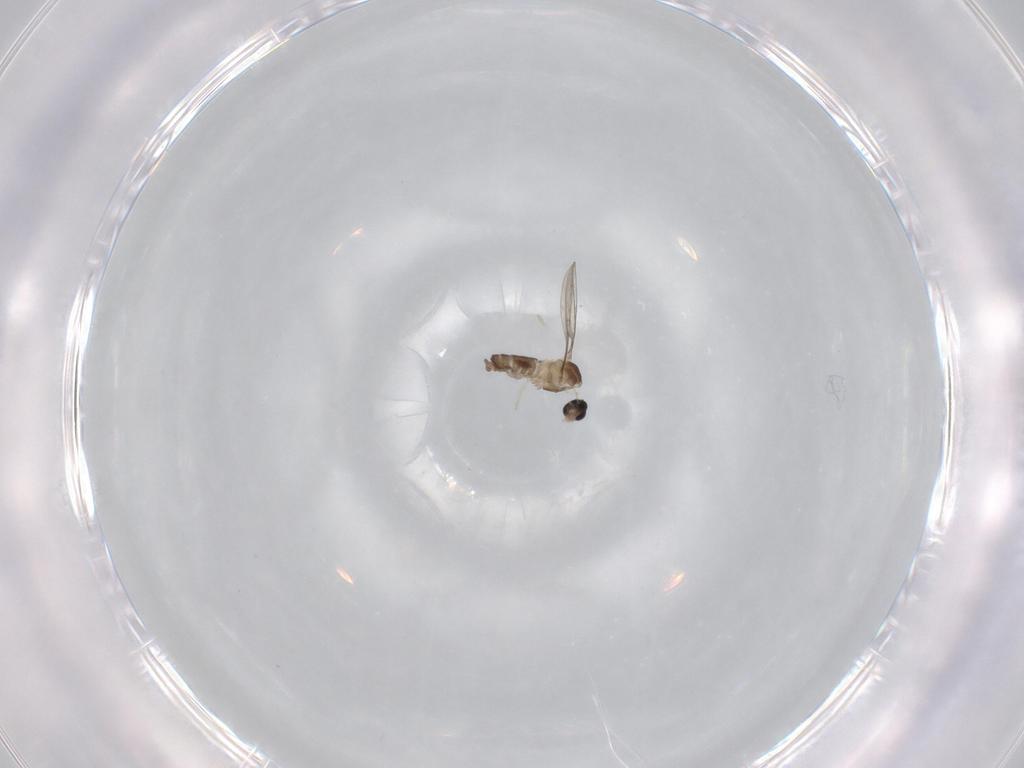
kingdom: Animalia
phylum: Arthropoda
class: Insecta
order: Diptera
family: Cecidomyiidae
